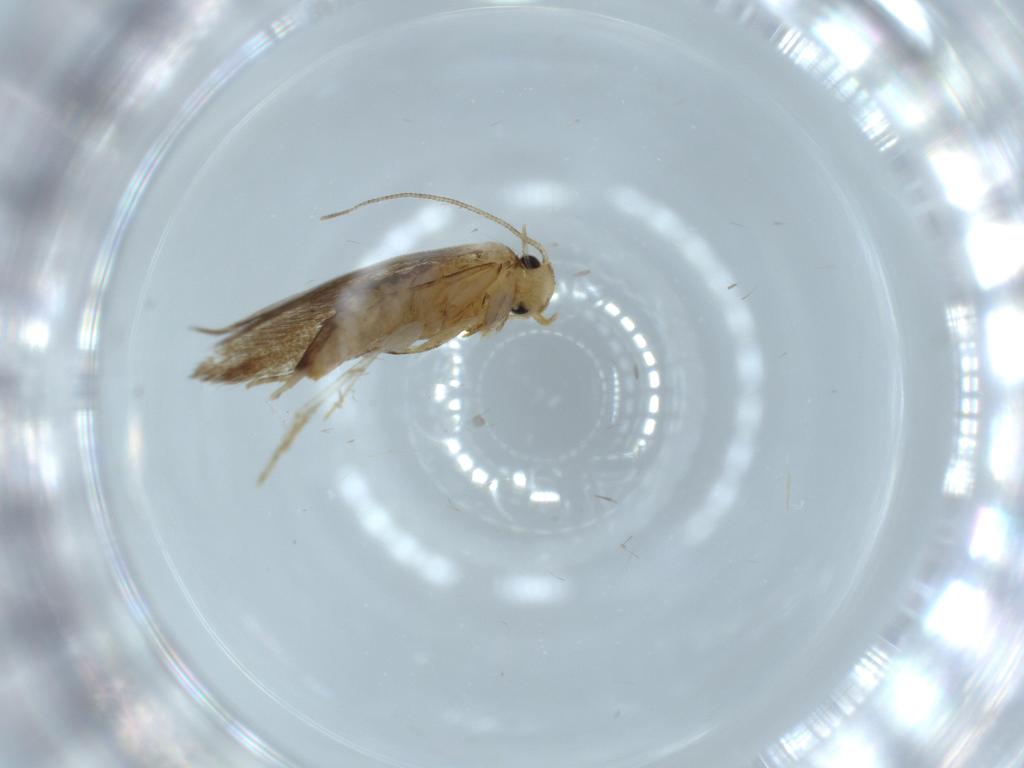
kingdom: Animalia
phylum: Arthropoda
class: Insecta
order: Lepidoptera
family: Tineidae
